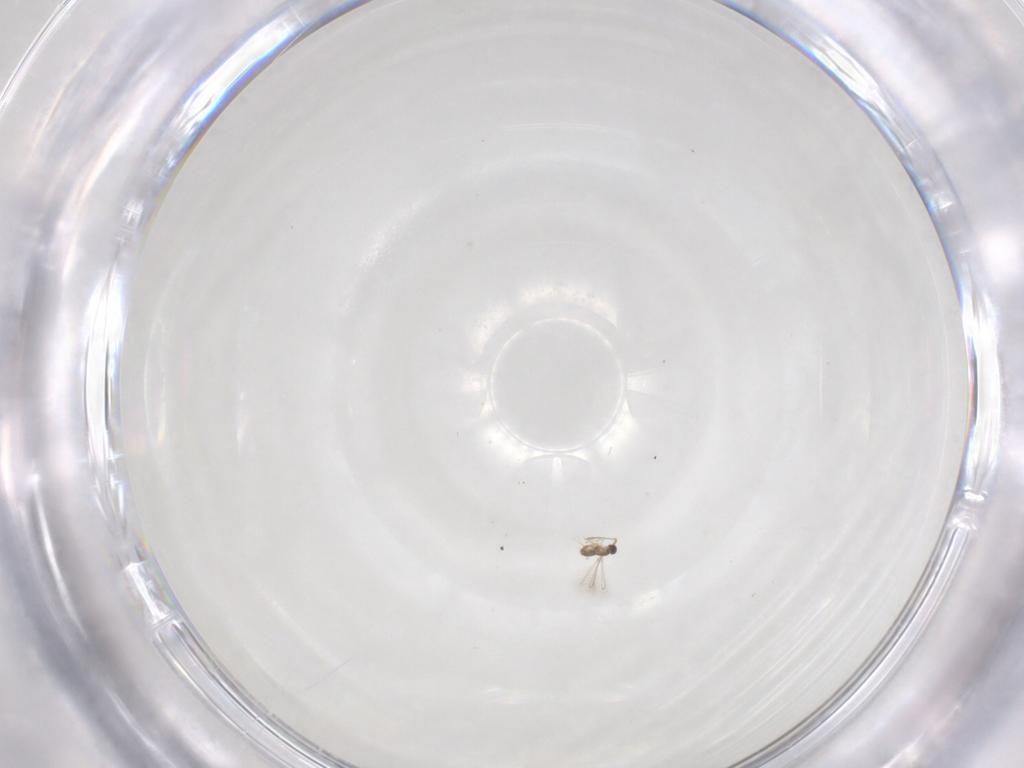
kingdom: Animalia
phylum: Arthropoda
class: Insecta
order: Hymenoptera
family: Mymaridae
